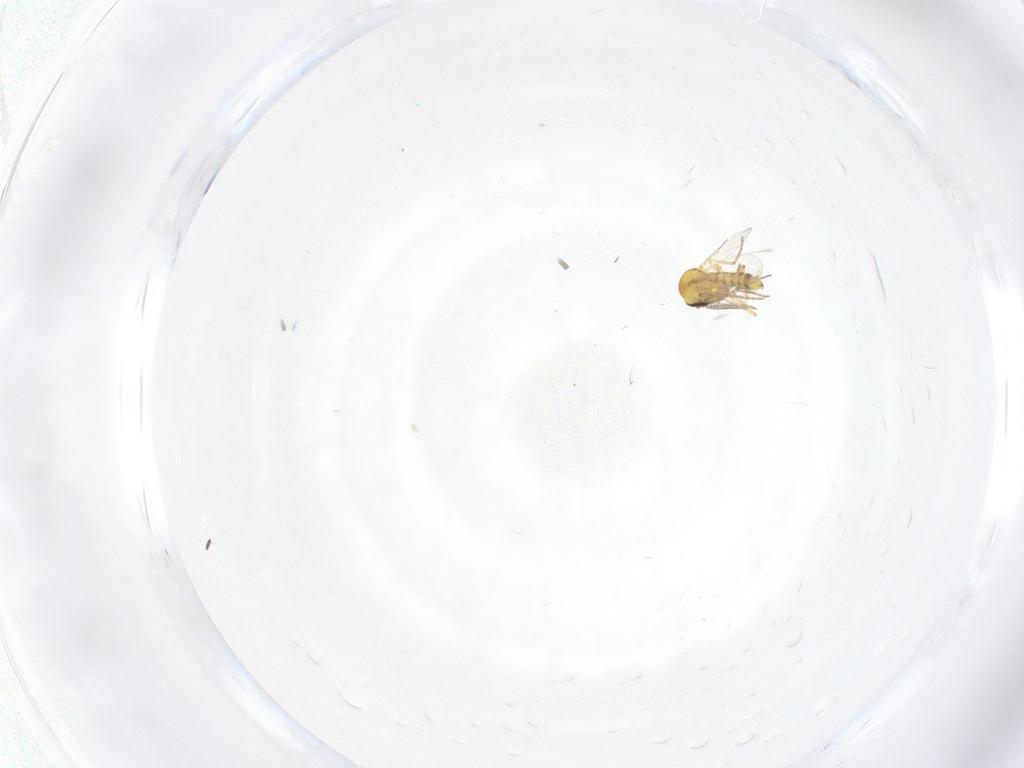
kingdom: Animalia
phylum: Arthropoda
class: Insecta
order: Diptera
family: Ceratopogonidae
